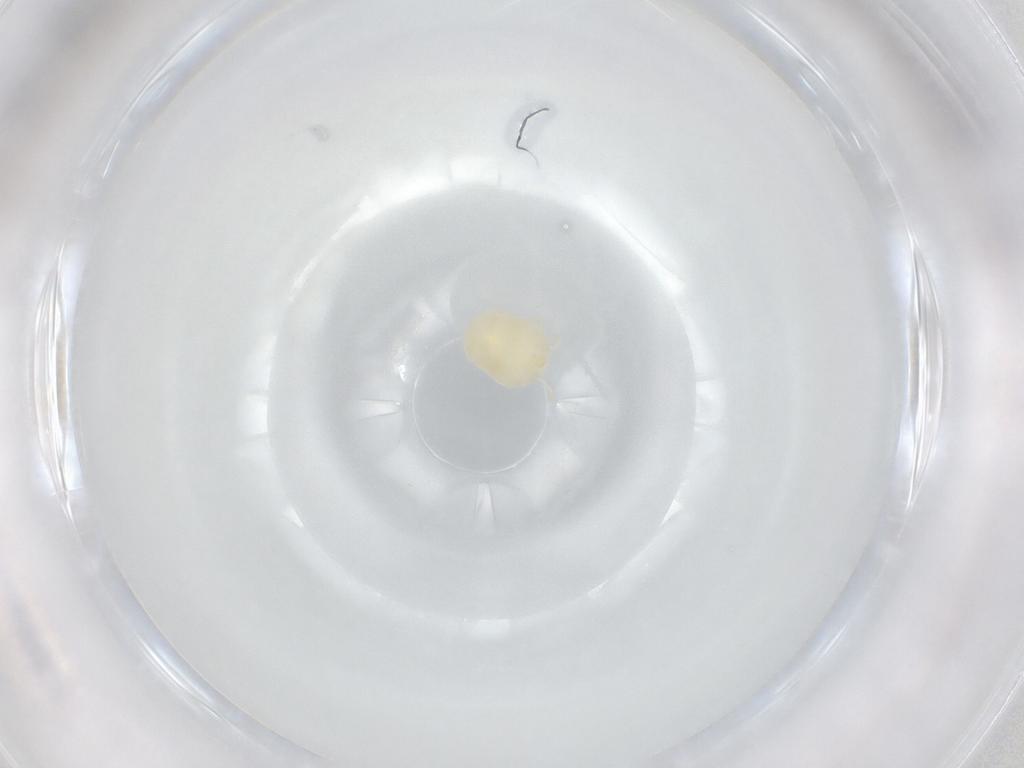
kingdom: Animalia
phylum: Arthropoda
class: Arachnida
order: Trombidiformes
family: Hydryphantidae
